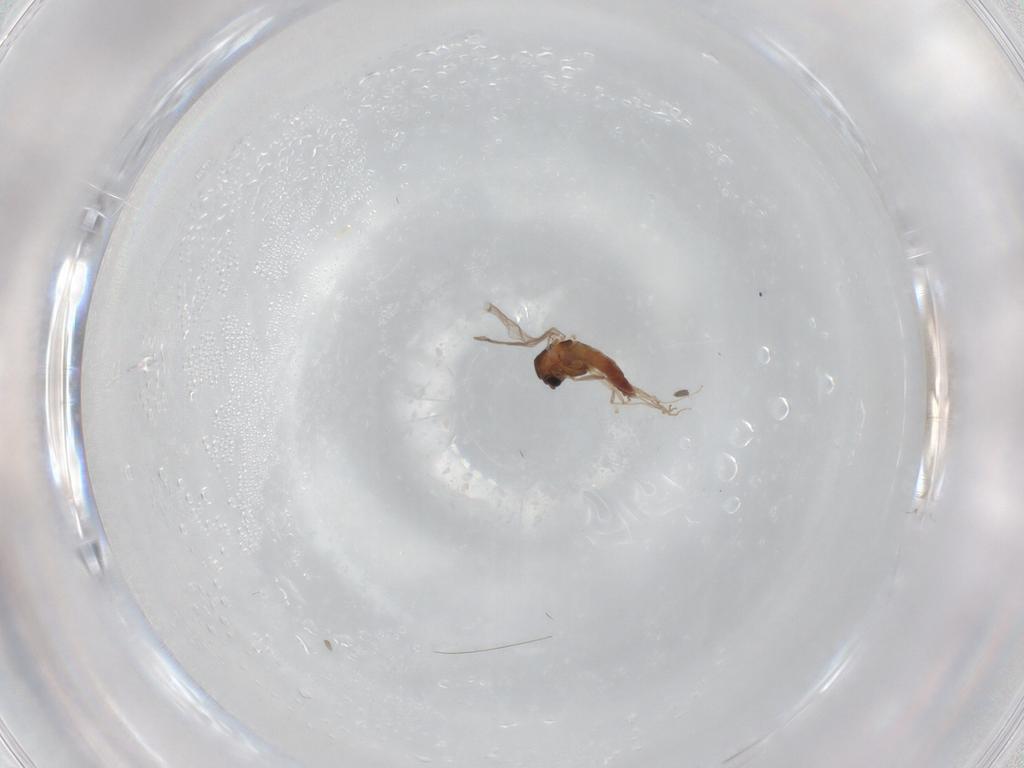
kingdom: Animalia
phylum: Arthropoda
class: Insecta
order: Diptera
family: Chironomidae
